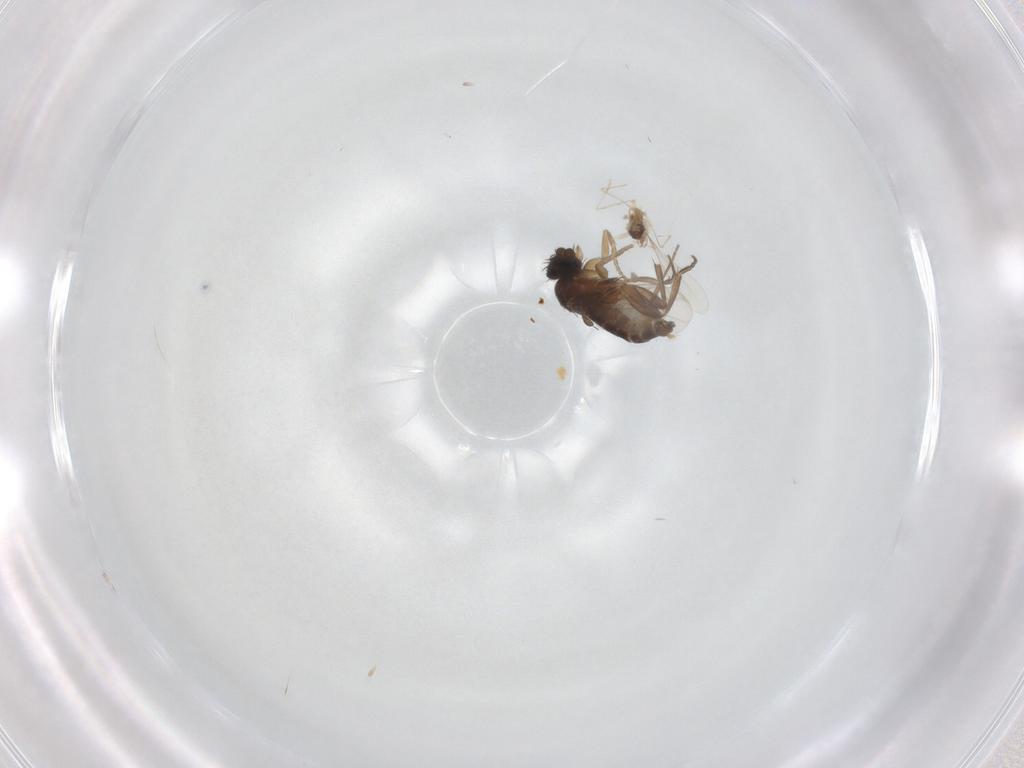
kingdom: Animalia
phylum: Arthropoda
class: Insecta
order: Diptera
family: Phoridae
